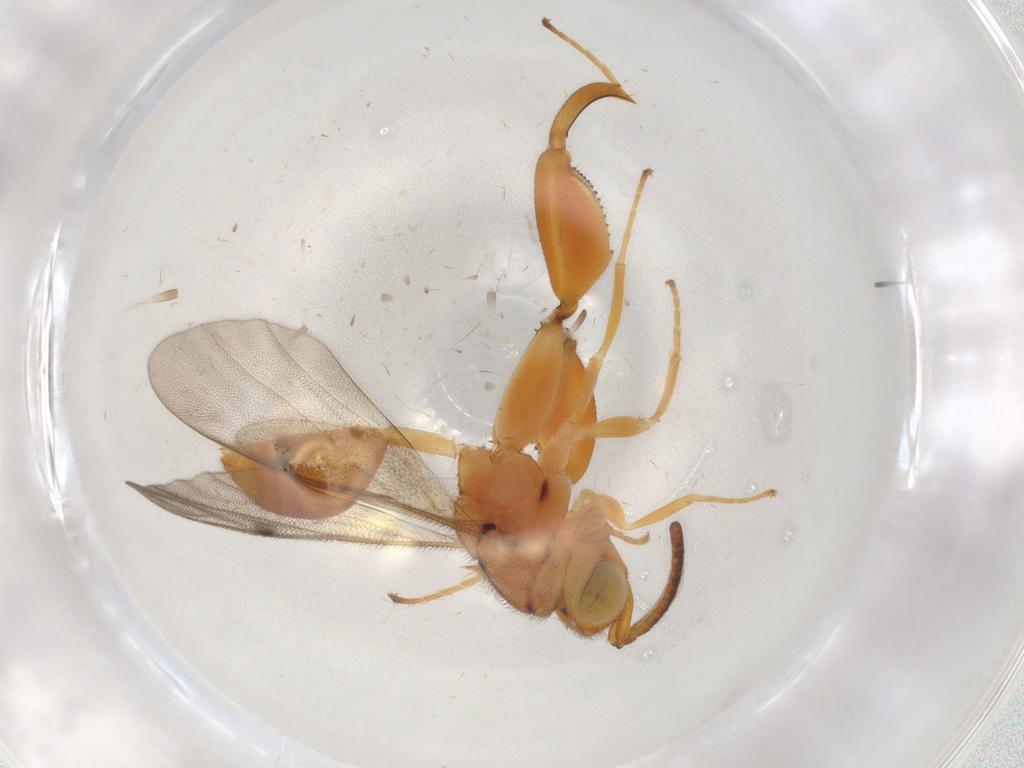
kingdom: Animalia
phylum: Arthropoda
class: Insecta
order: Hymenoptera
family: Chalcididae
